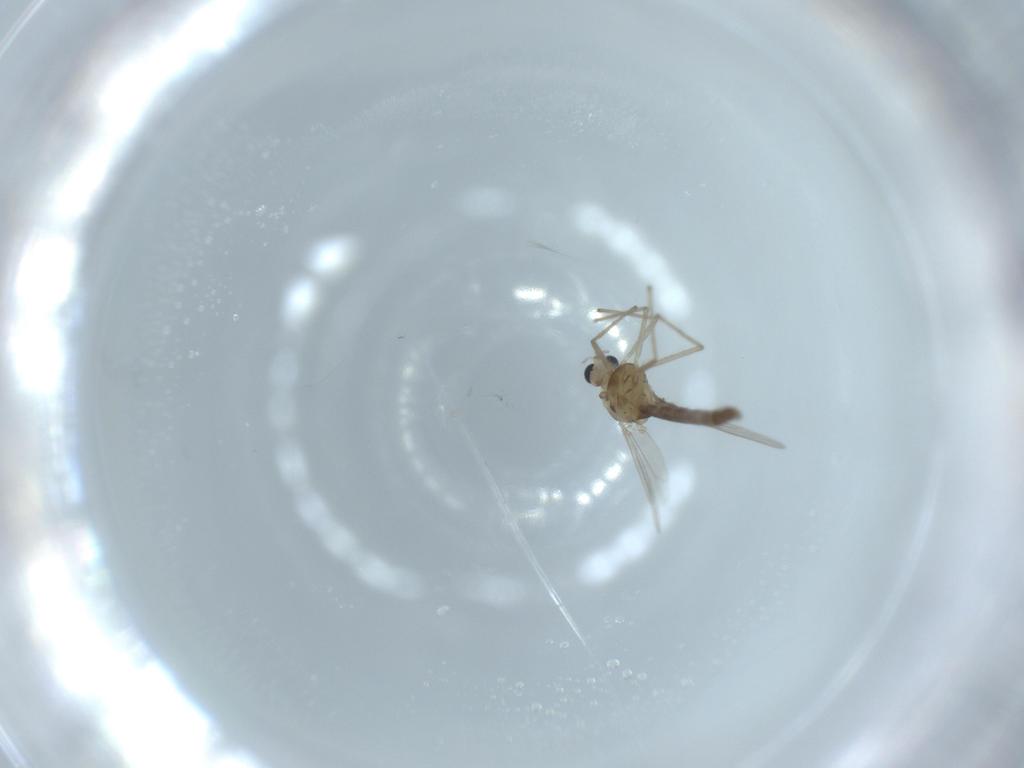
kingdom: Animalia
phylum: Arthropoda
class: Insecta
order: Diptera
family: Chironomidae
